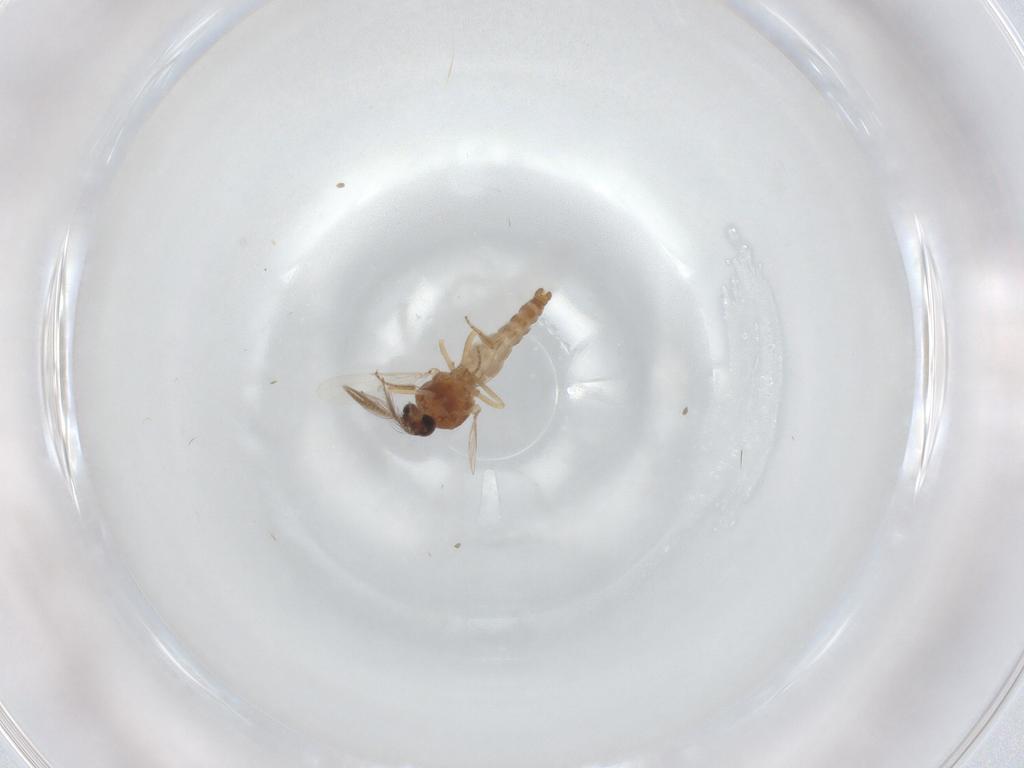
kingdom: Animalia
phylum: Arthropoda
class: Insecta
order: Diptera
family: Ceratopogonidae
